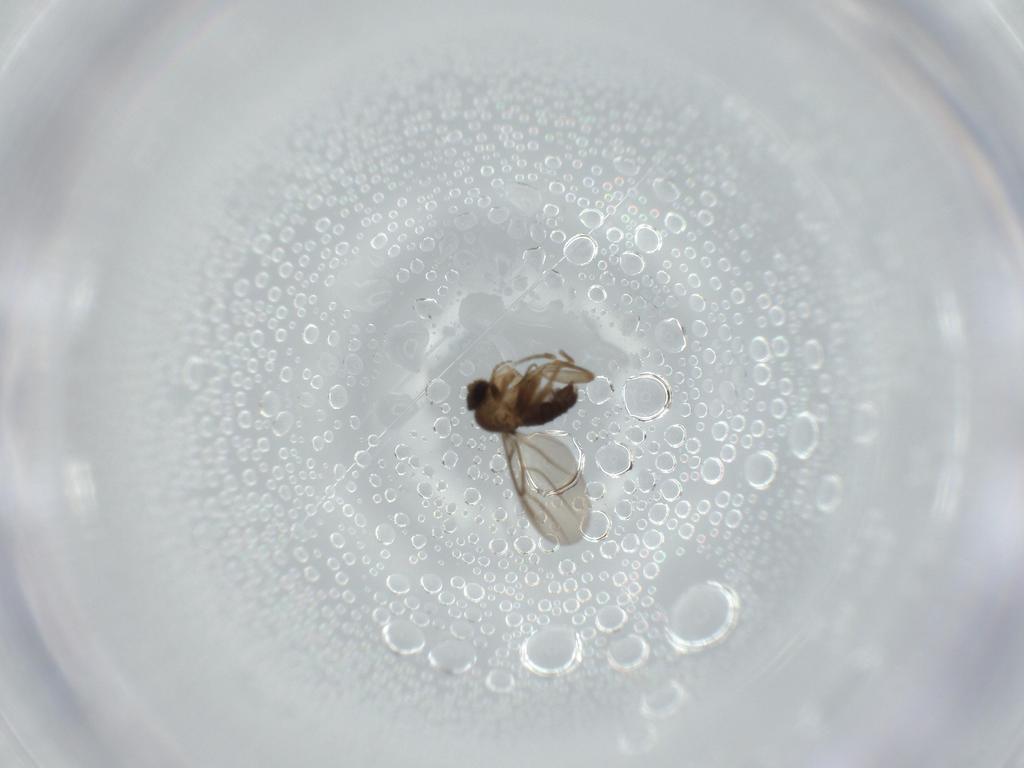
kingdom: Animalia
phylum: Arthropoda
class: Insecta
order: Diptera
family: Phoridae
